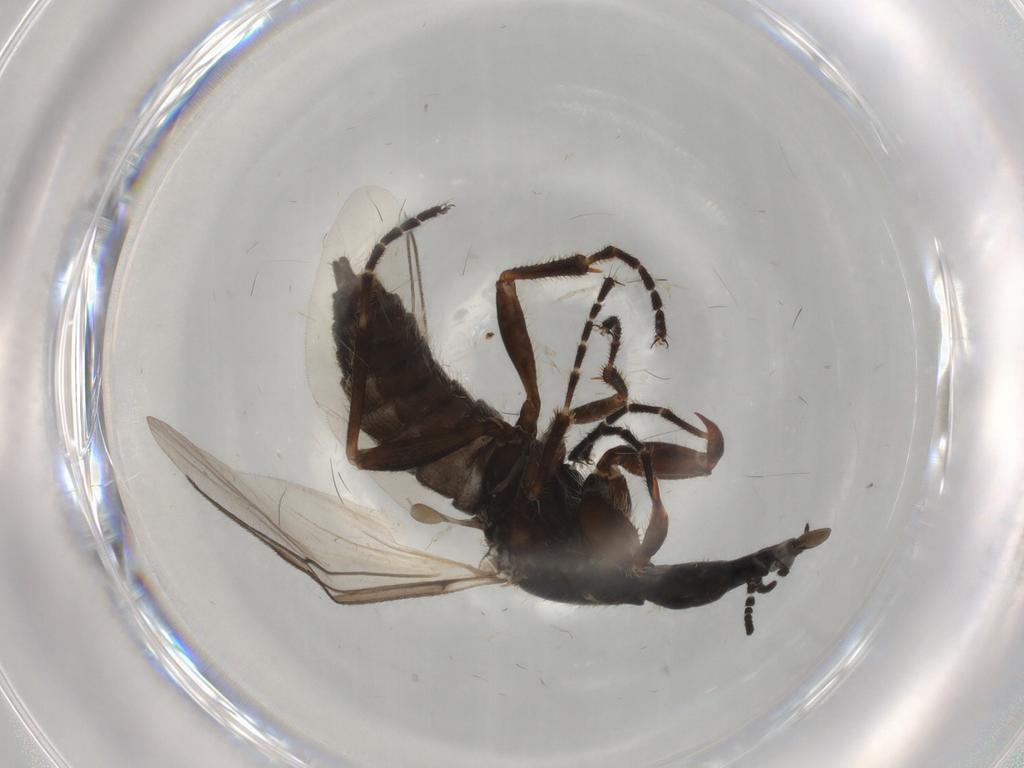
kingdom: Animalia
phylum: Arthropoda
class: Insecta
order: Diptera
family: Bibionidae
